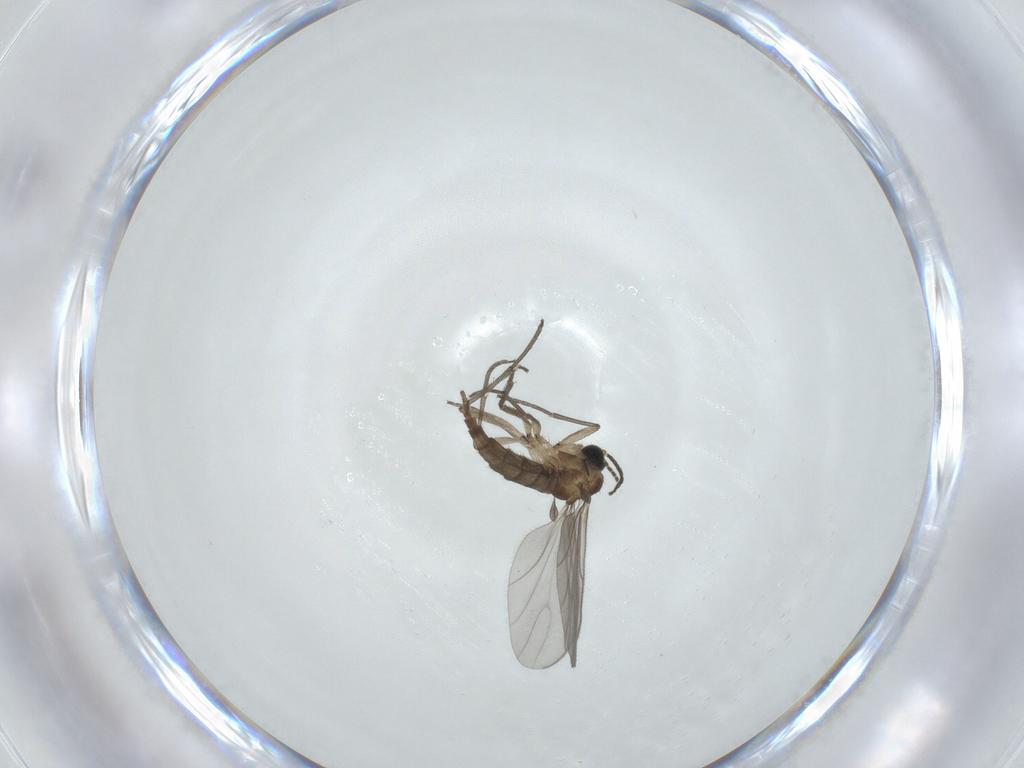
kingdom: Animalia
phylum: Arthropoda
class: Insecta
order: Diptera
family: Sciaridae
